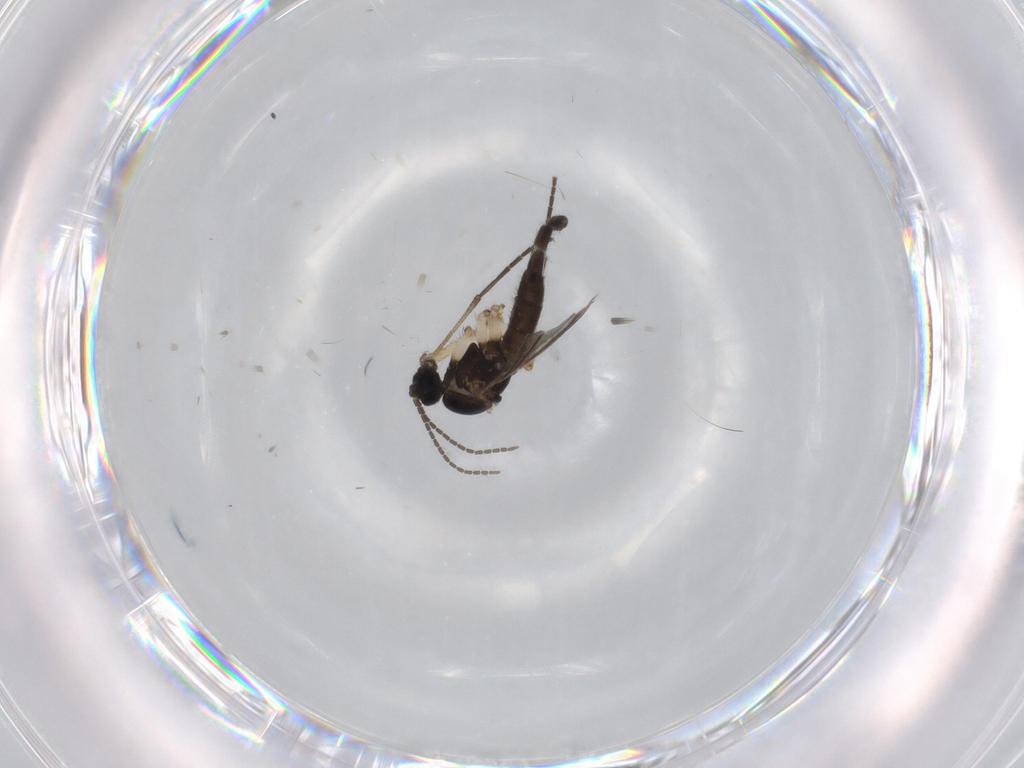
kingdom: Animalia
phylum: Arthropoda
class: Insecta
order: Diptera
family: Sciaridae
